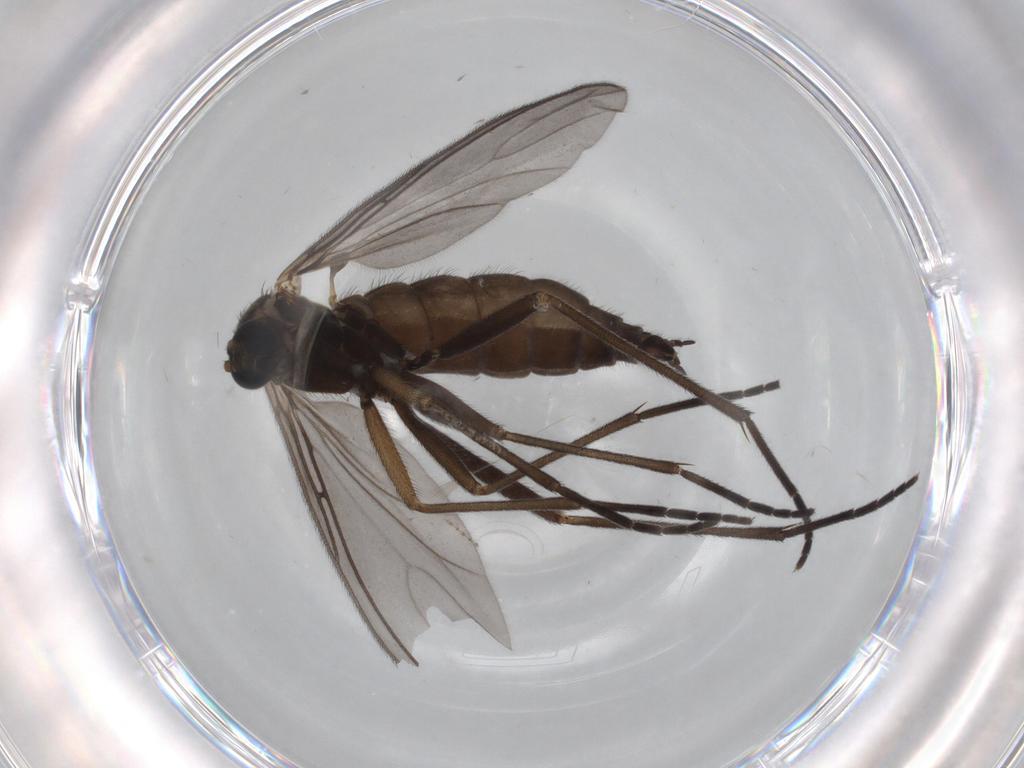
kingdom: Animalia
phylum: Arthropoda
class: Insecta
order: Diptera
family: Sciaridae
